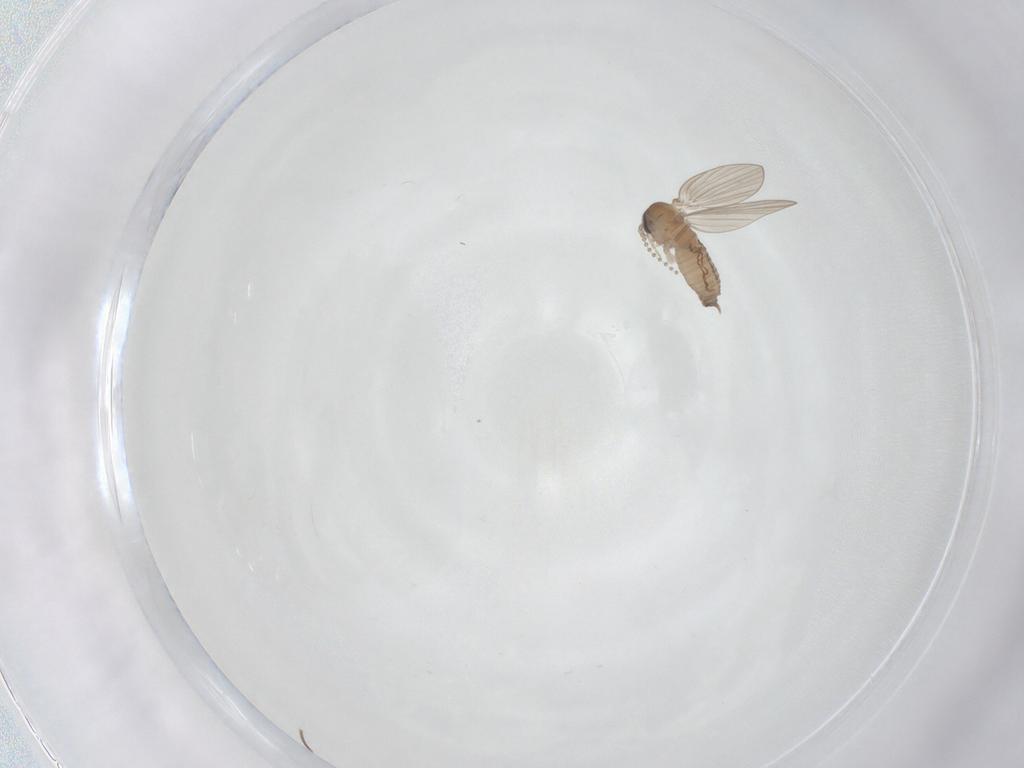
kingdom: Animalia
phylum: Arthropoda
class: Insecta
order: Diptera
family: Psychodidae
